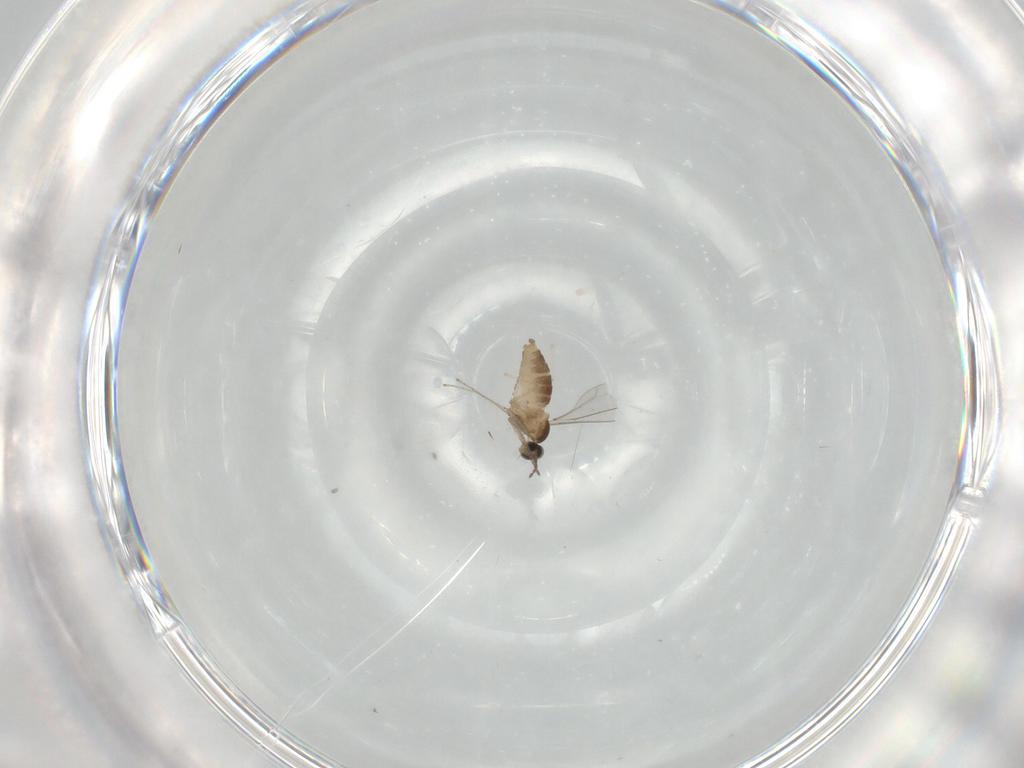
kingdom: Animalia
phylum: Arthropoda
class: Insecta
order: Diptera
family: Cecidomyiidae
